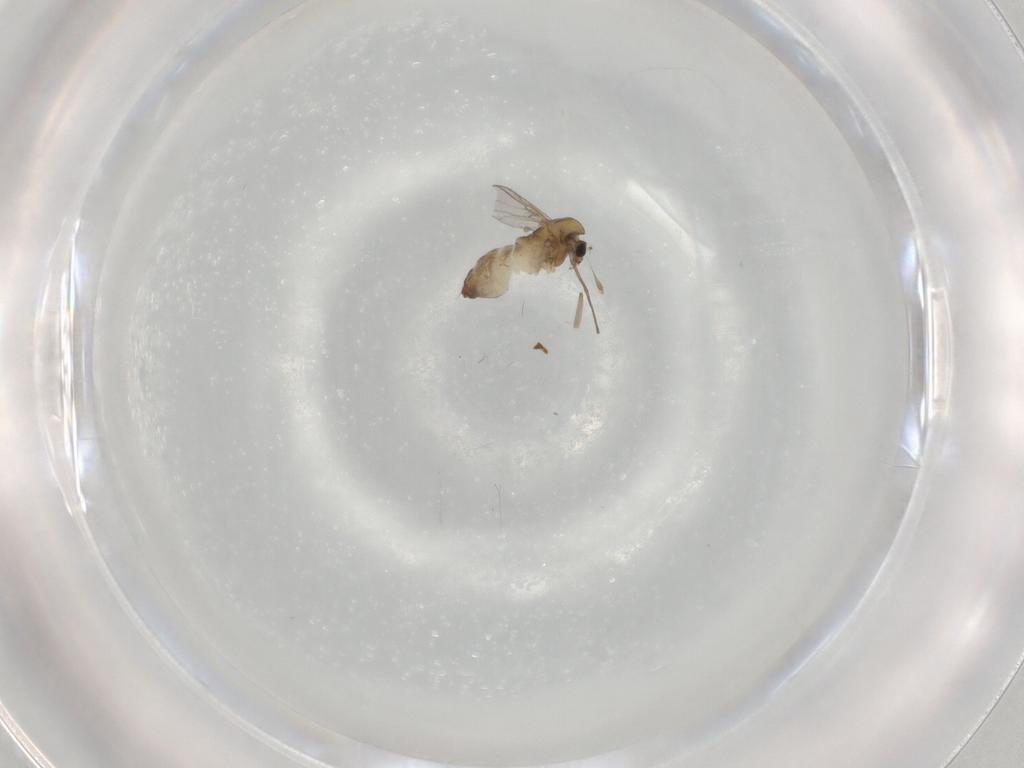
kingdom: Animalia
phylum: Arthropoda
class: Insecta
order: Diptera
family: Chironomidae
